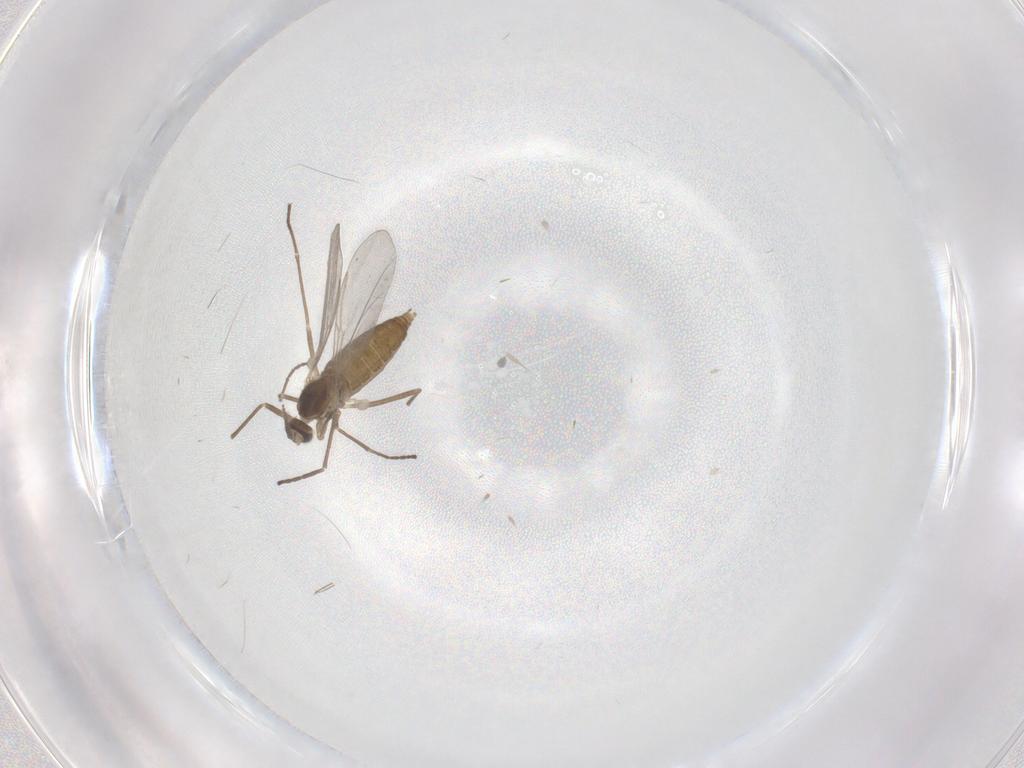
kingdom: Animalia
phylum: Arthropoda
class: Insecta
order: Diptera
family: Cecidomyiidae
